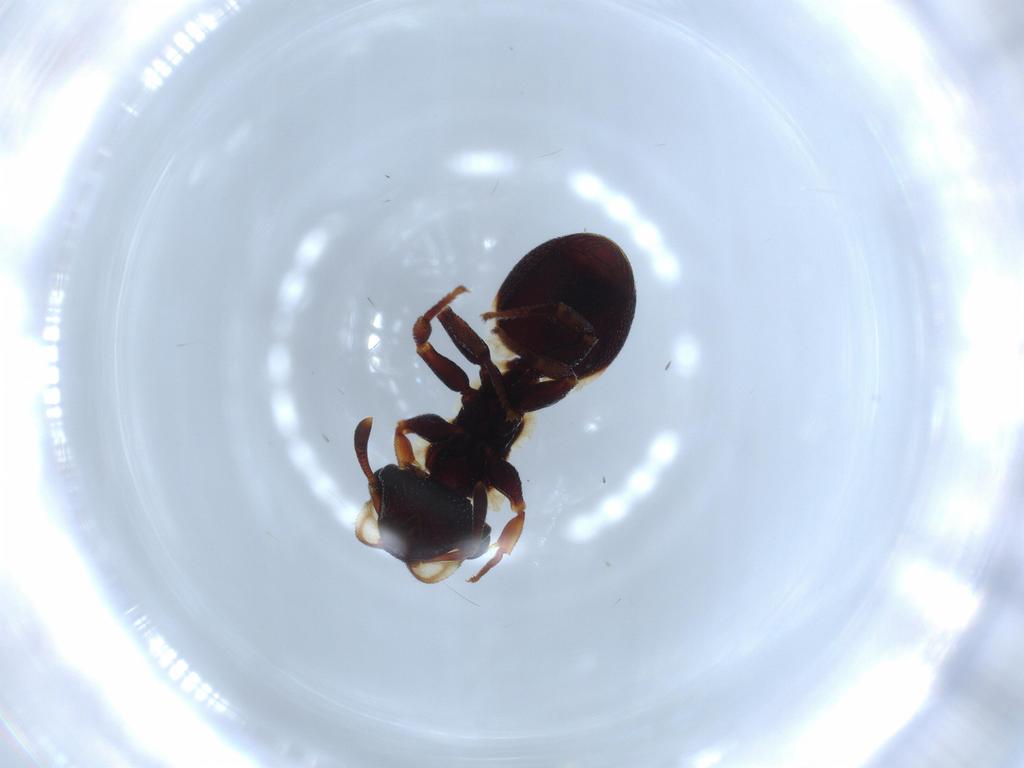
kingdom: Animalia
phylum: Arthropoda
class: Insecta
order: Hymenoptera
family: Formicidae
